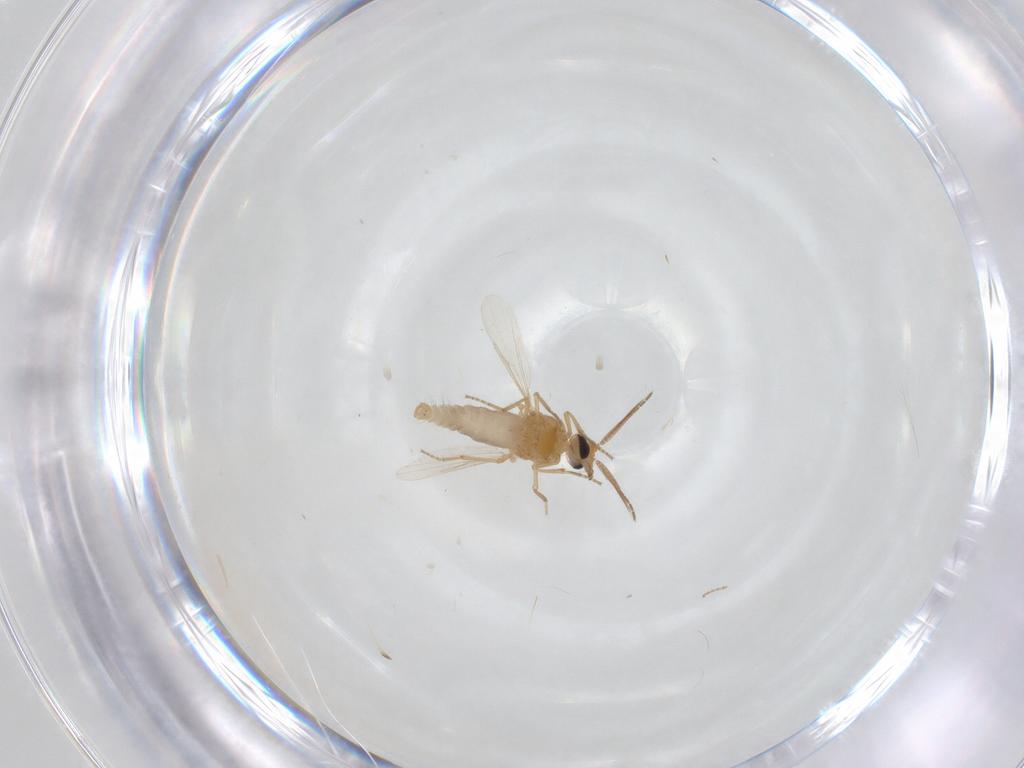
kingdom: Animalia
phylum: Arthropoda
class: Insecta
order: Diptera
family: Ceratopogonidae
